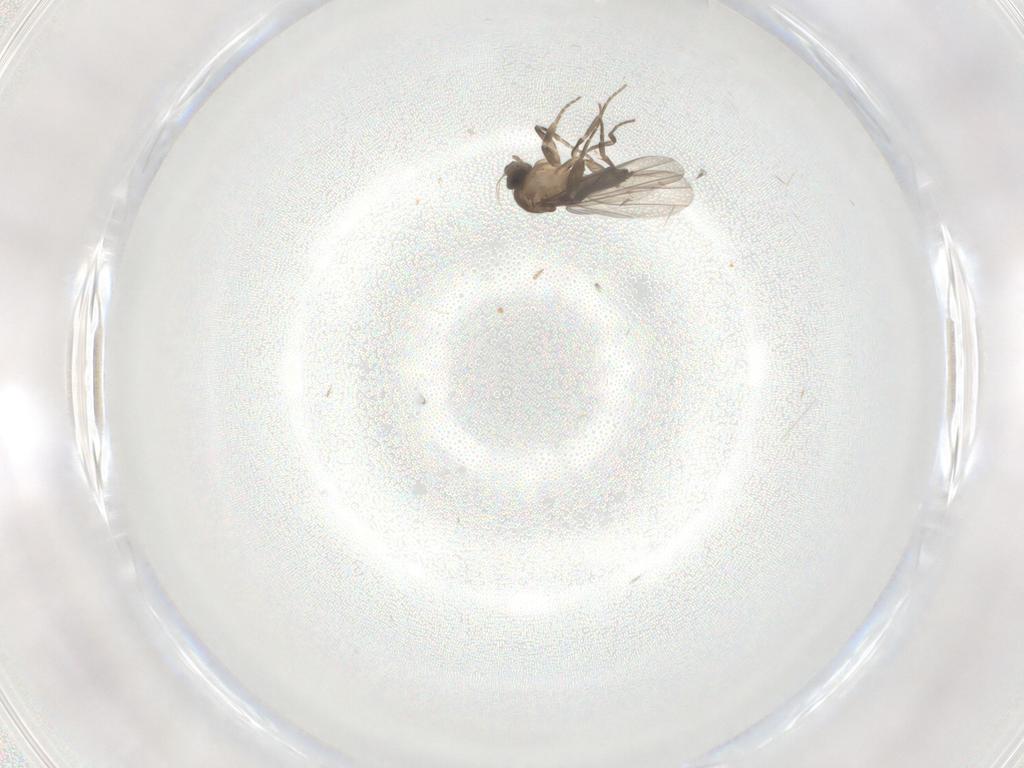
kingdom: Animalia
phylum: Arthropoda
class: Insecta
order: Diptera
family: Phoridae
